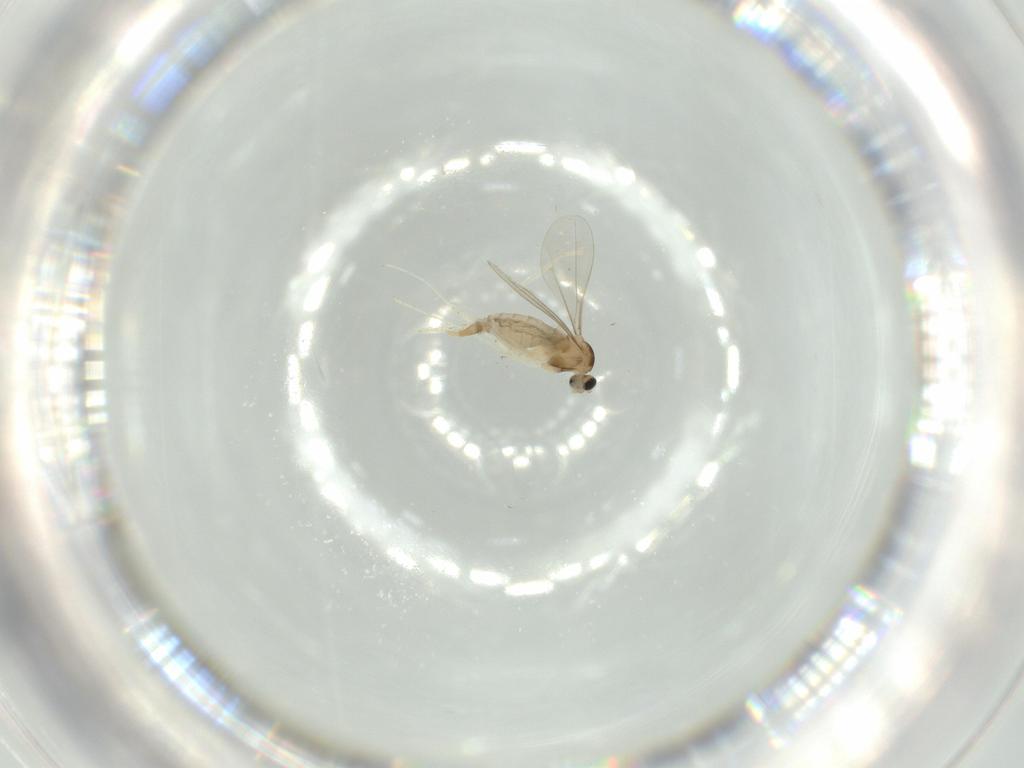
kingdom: Animalia
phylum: Arthropoda
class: Insecta
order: Diptera
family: Psychodidae
